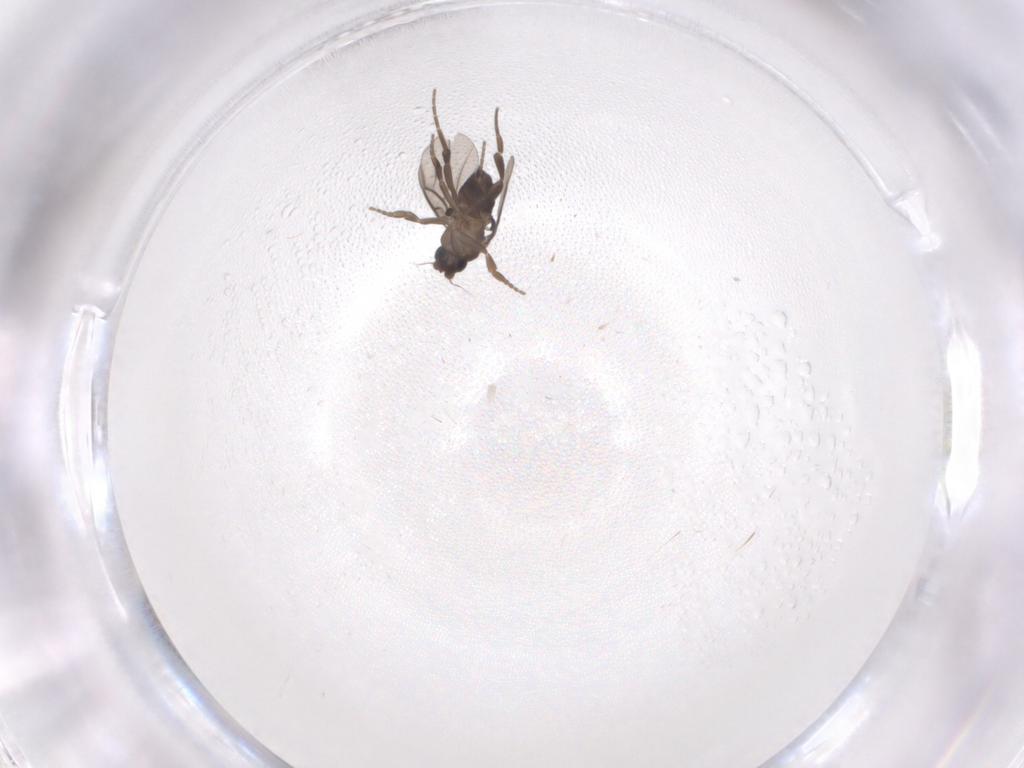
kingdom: Animalia
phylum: Arthropoda
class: Insecta
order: Diptera
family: Phoridae
